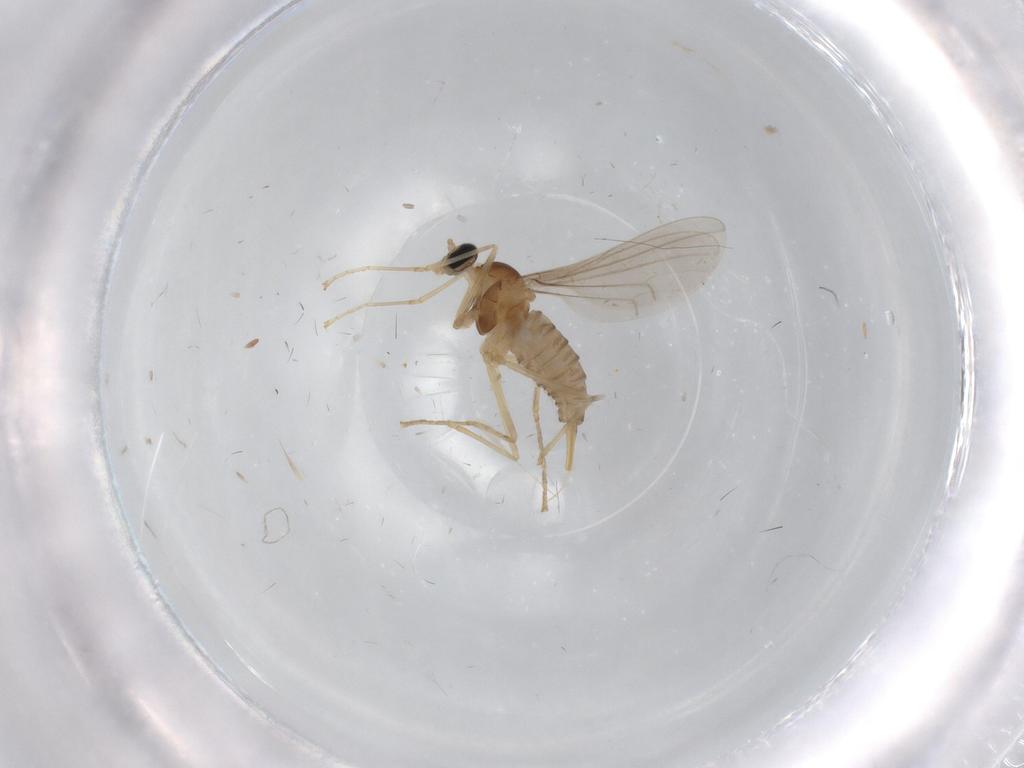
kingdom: Animalia
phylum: Arthropoda
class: Insecta
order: Diptera
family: Cecidomyiidae
